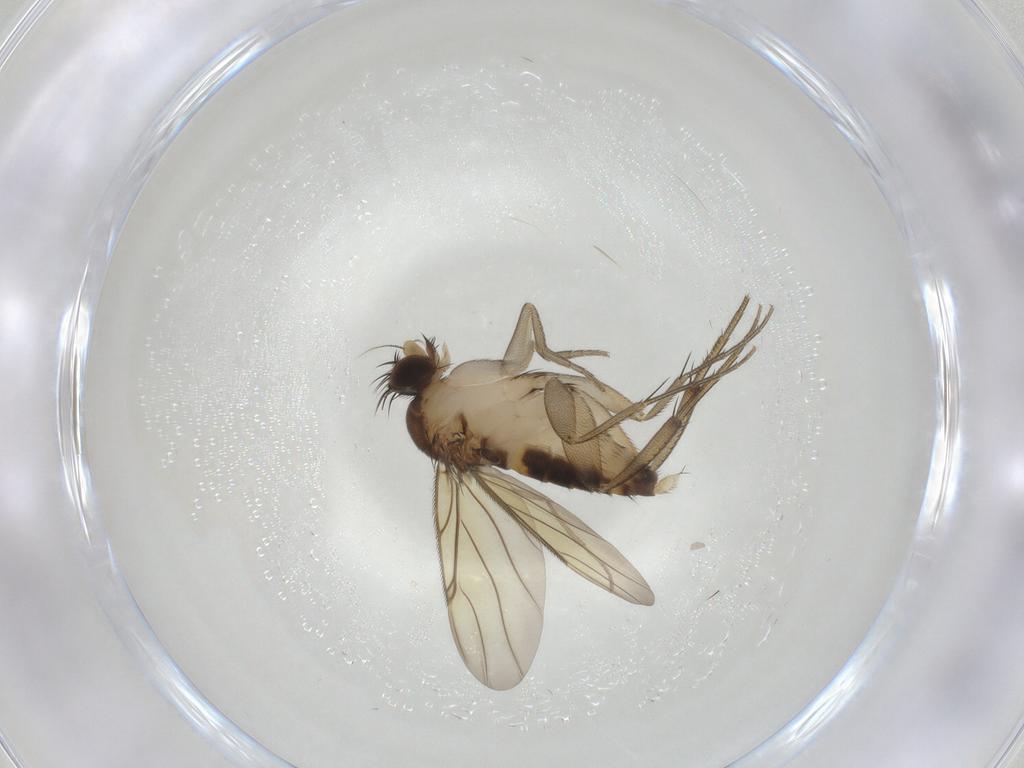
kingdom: Animalia
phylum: Arthropoda
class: Insecta
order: Diptera
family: Phoridae
